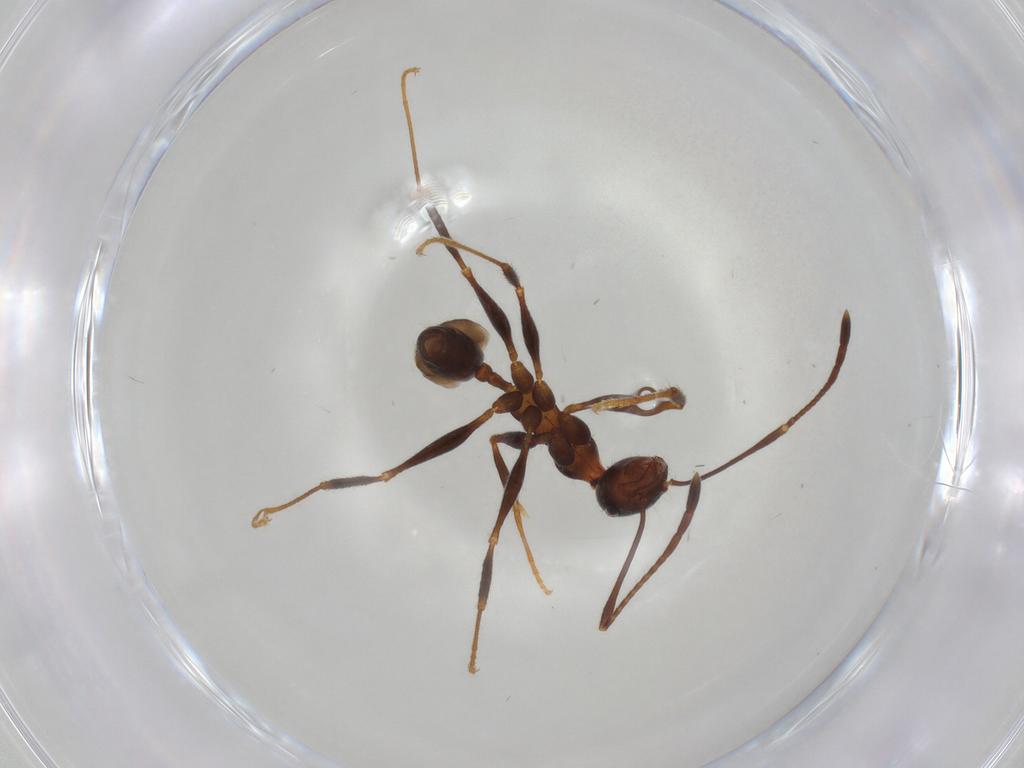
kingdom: Animalia
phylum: Arthropoda
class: Insecta
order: Hymenoptera
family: Formicidae
